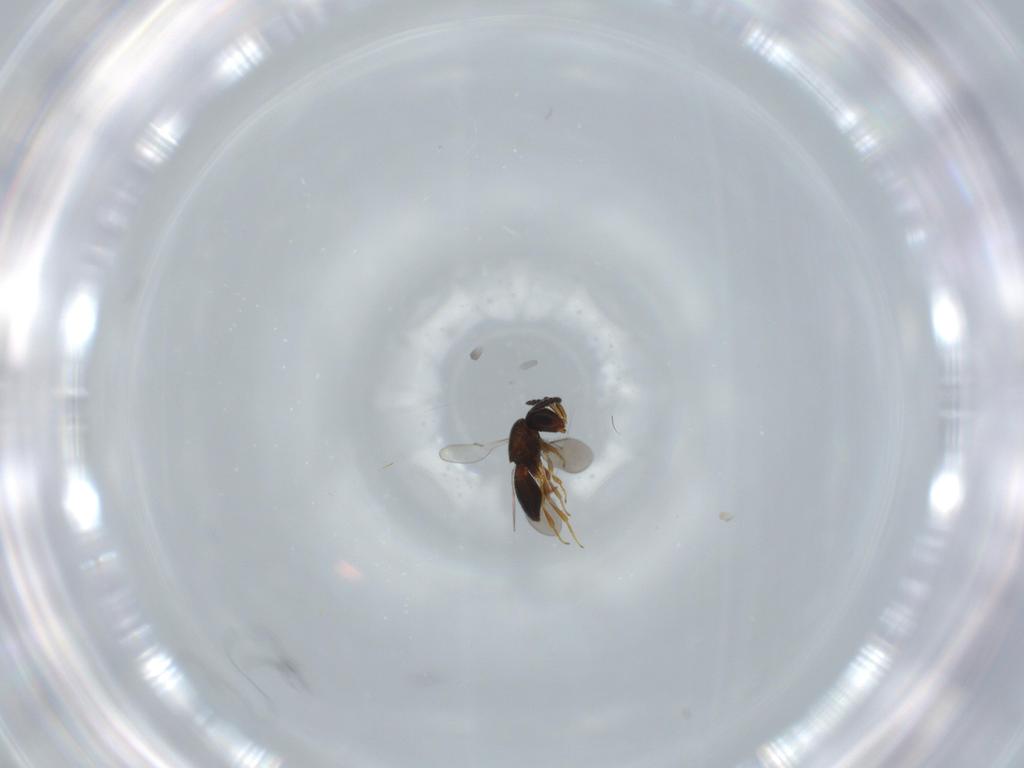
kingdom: Animalia
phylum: Arthropoda
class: Insecta
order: Hymenoptera
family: Scelionidae
